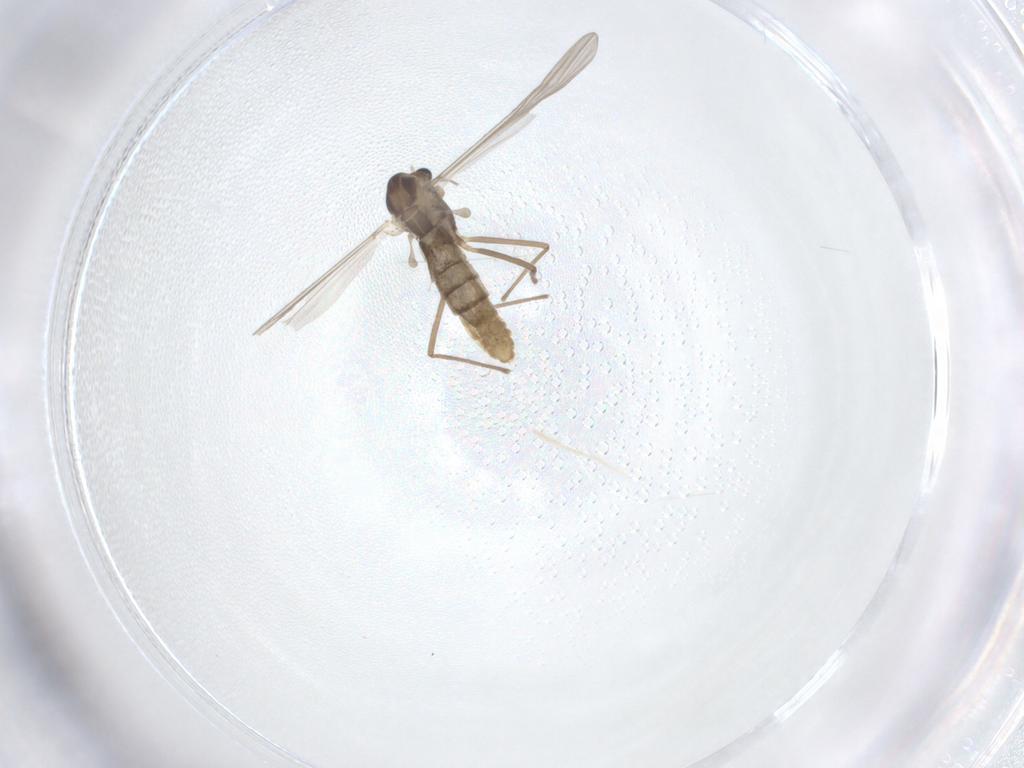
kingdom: Animalia
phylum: Arthropoda
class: Insecta
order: Diptera
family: Chironomidae
